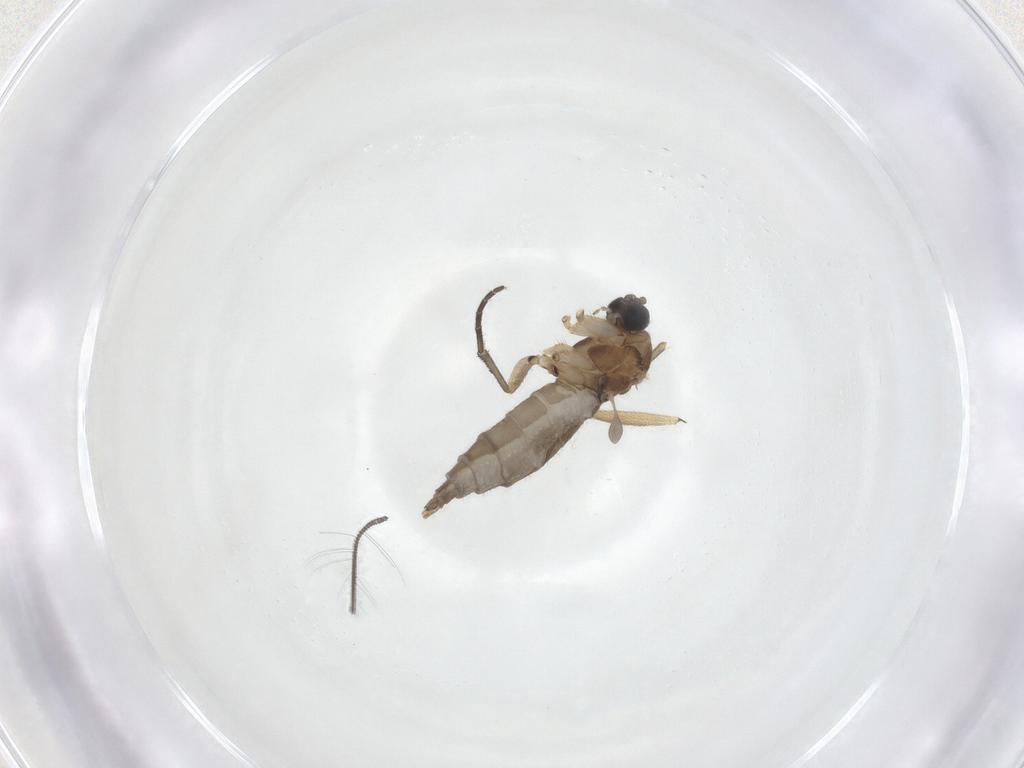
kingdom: Animalia
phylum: Arthropoda
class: Insecta
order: Diptera
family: Sciaridae
